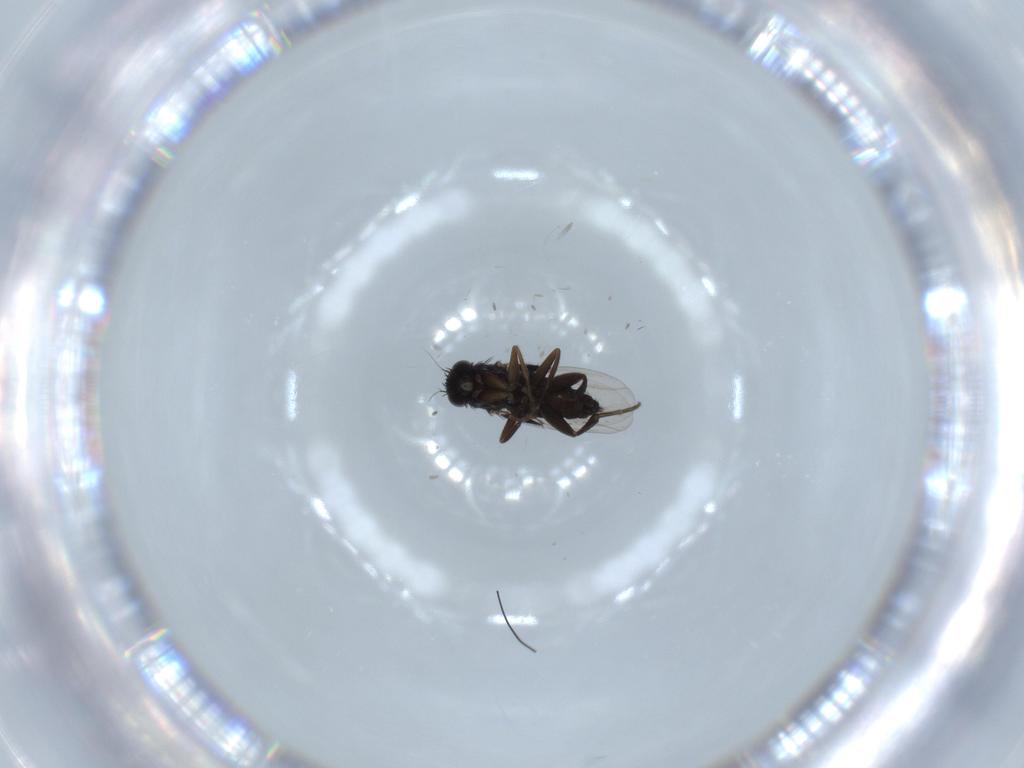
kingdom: Animalia
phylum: Arthropoda
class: Insecta
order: Diptera
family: Phoridae
